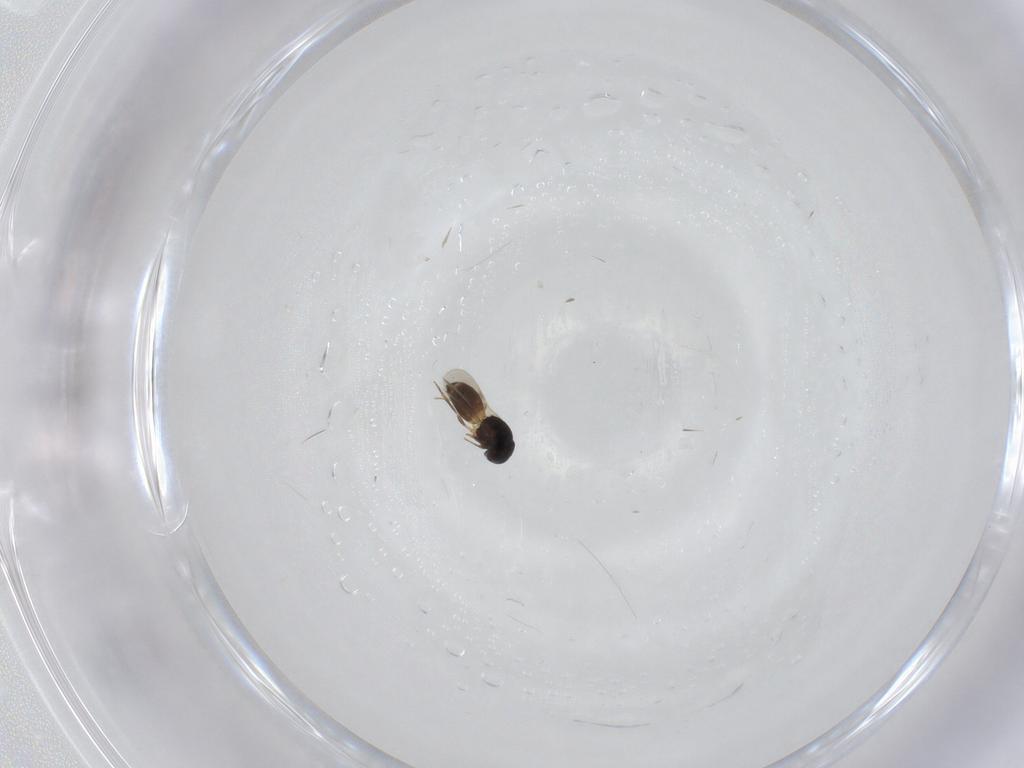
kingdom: Animalia
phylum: Arthropoda
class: Insecta
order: Hymenoptera
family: Scelionidae
